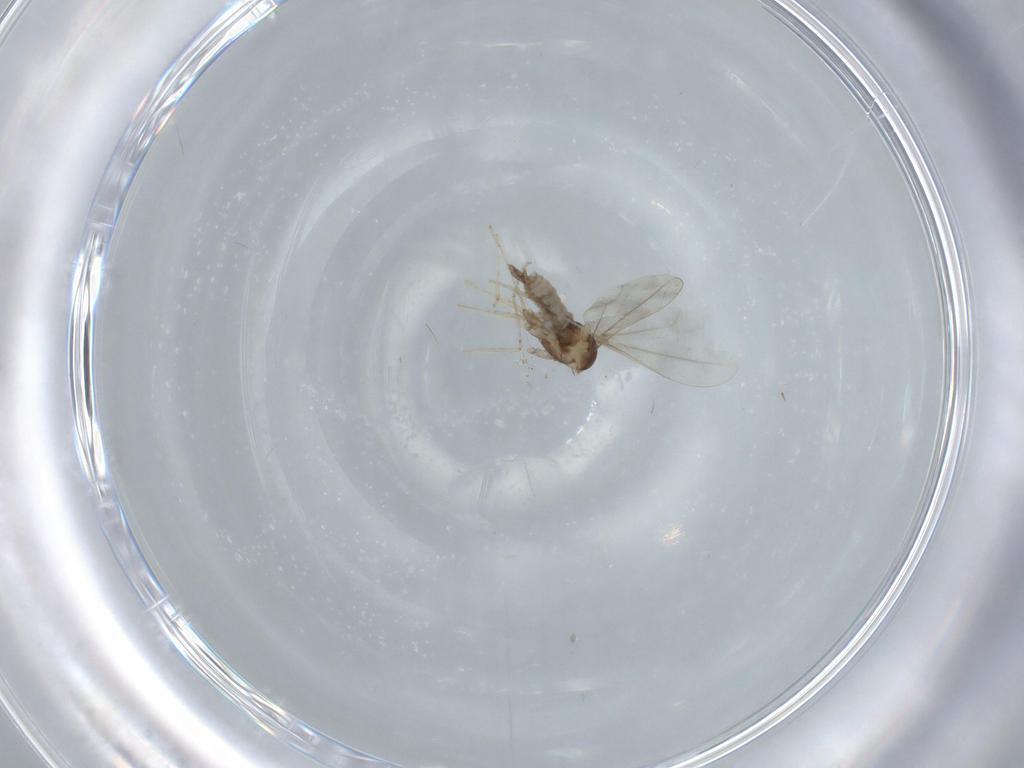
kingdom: Animalia
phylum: Arthropoda
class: Insecta
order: Diptera
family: Cecidomyiidae
